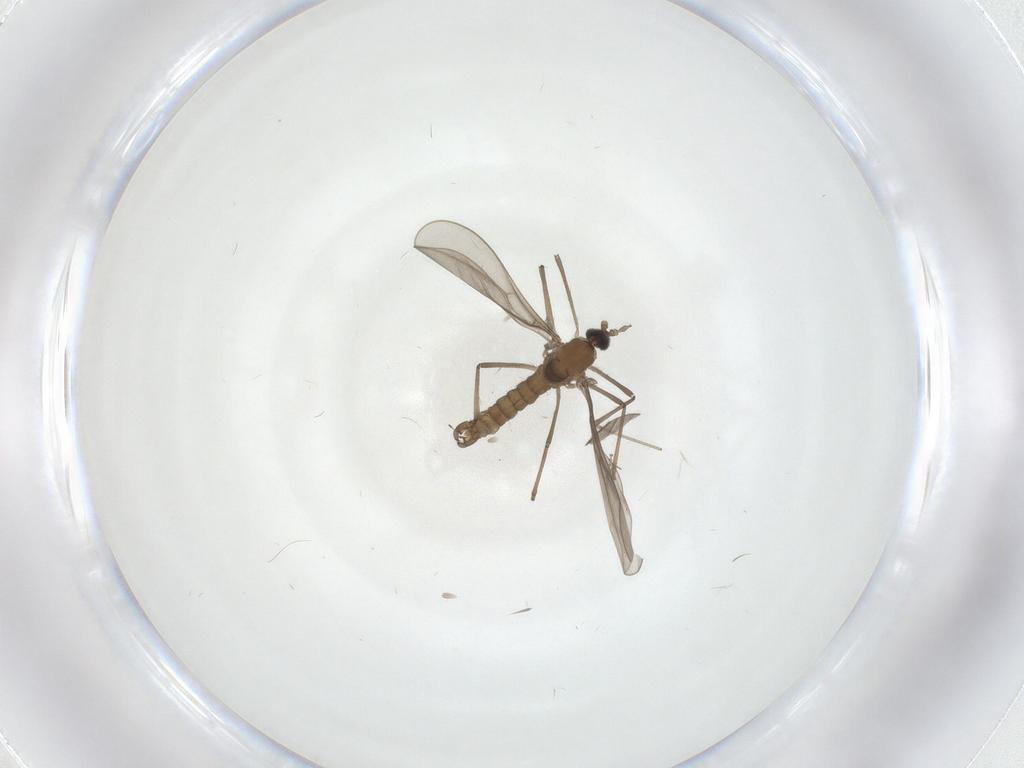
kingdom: Animalia
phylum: Arthropoda
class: Insecta
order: Diptera
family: Cecidomyiidae
